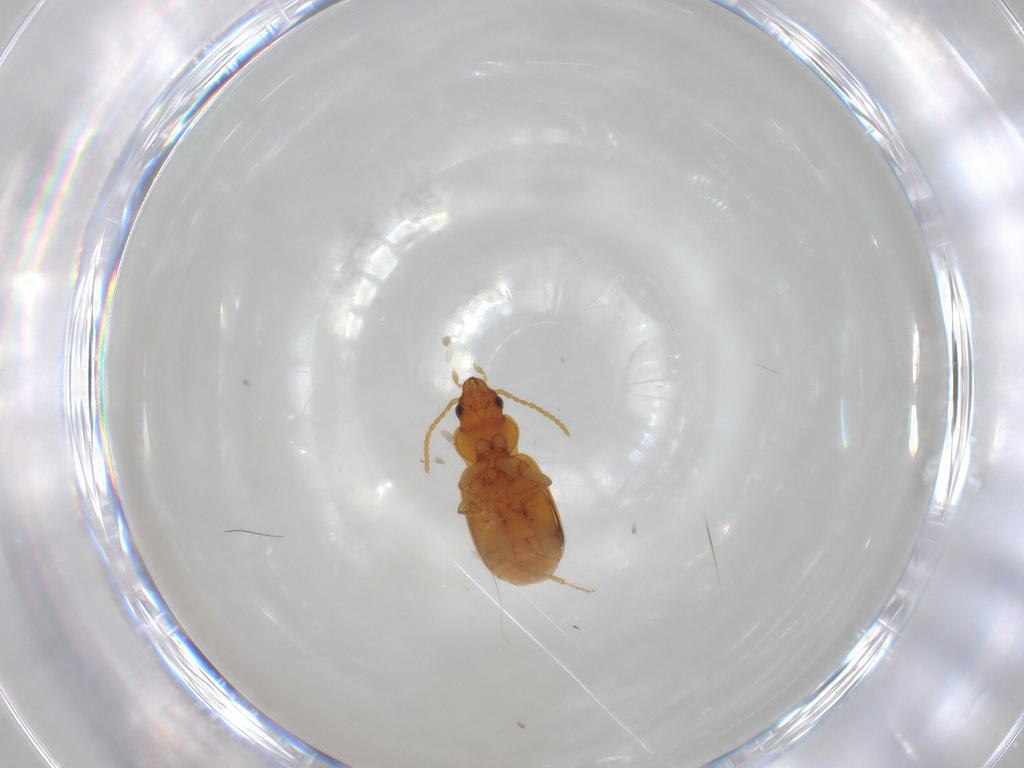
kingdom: Animalia
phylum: Arthropoda
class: Insecta
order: Coleoptera
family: Carabidae
